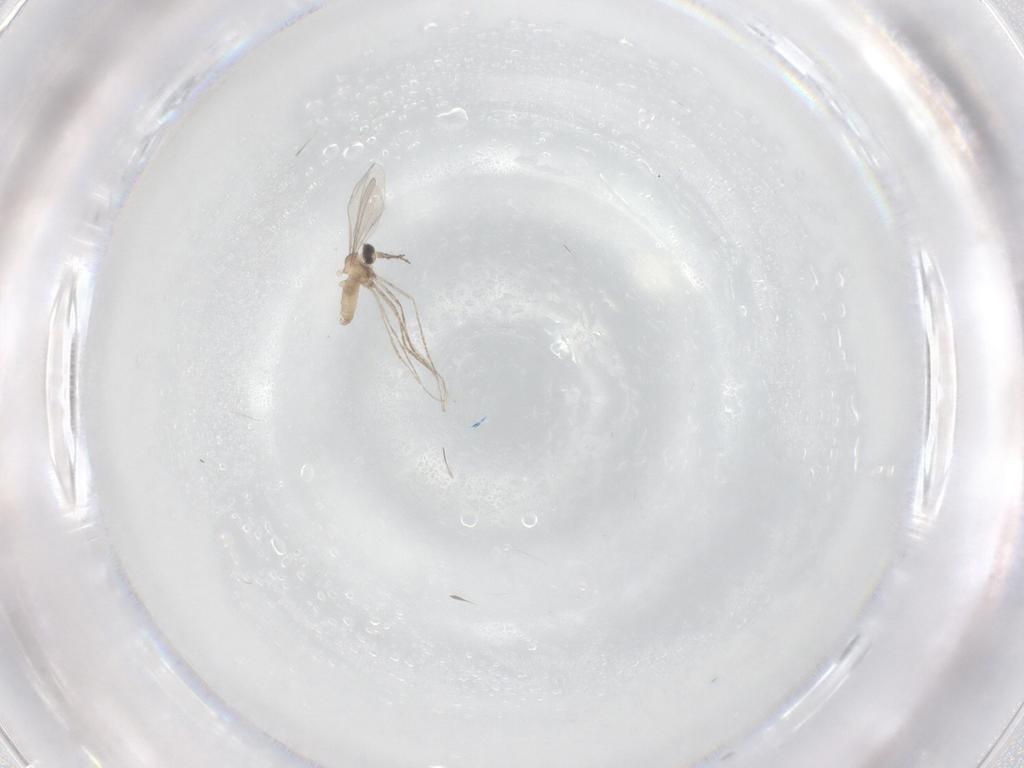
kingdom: Animalia
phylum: Arthropoda
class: Insecta
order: Diptera
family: Cecidomyiidae
